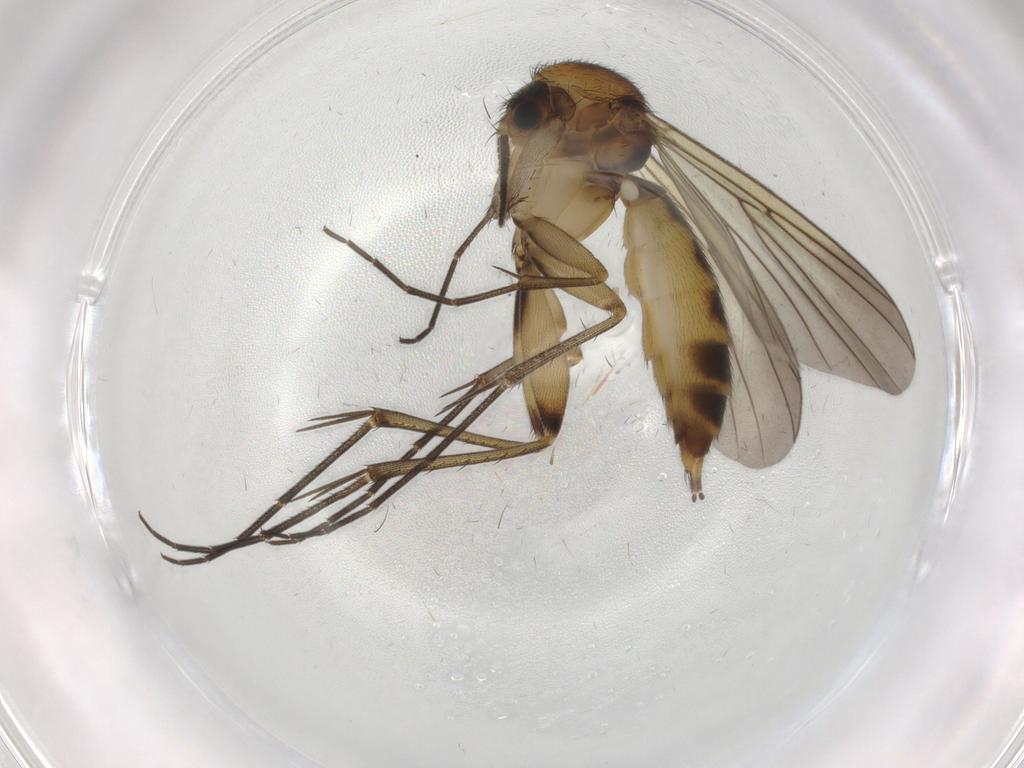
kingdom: Animalia
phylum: Arthropoda
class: Insecta
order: Diptera
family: Mycetophilidae
